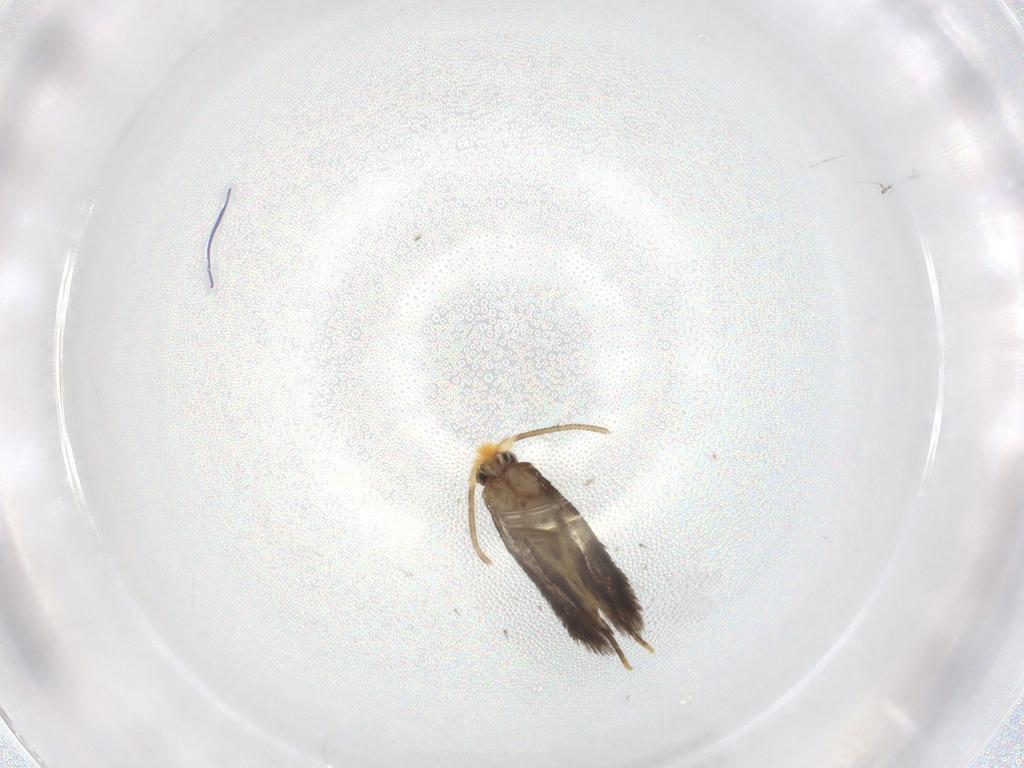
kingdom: Animalia
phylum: Arthropoda
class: Insecta
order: Lepidoptera
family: Nepticulidae
